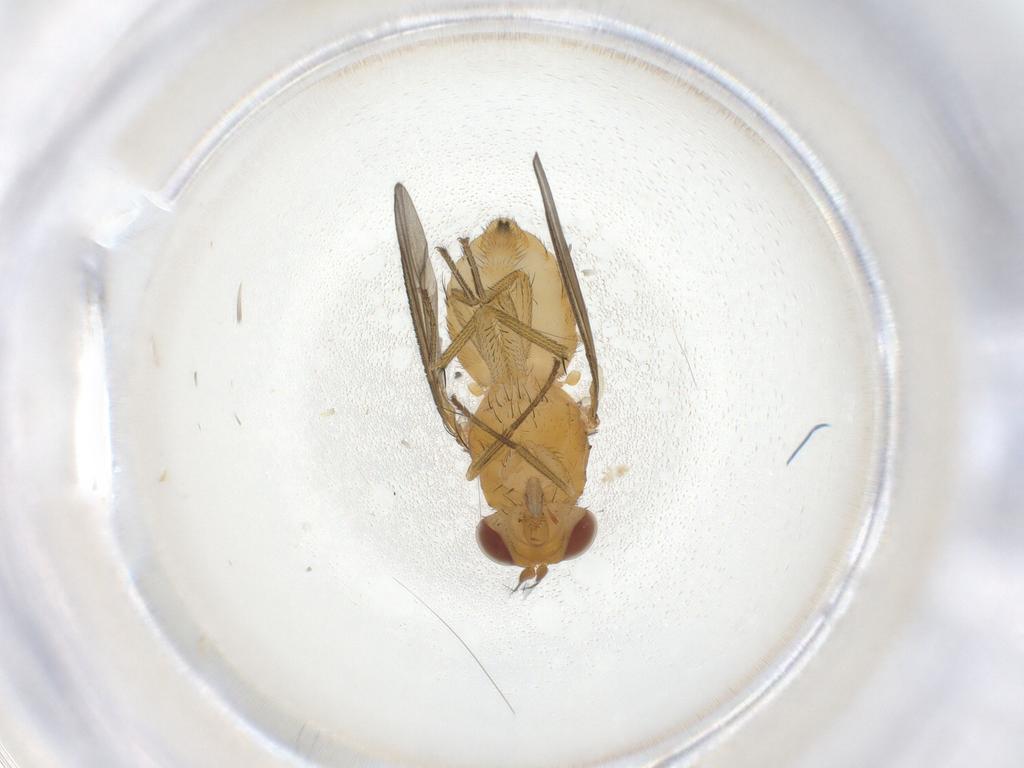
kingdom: Animalia
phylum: Arthropoda
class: Insecta
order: Diptera
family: Tabanidae
